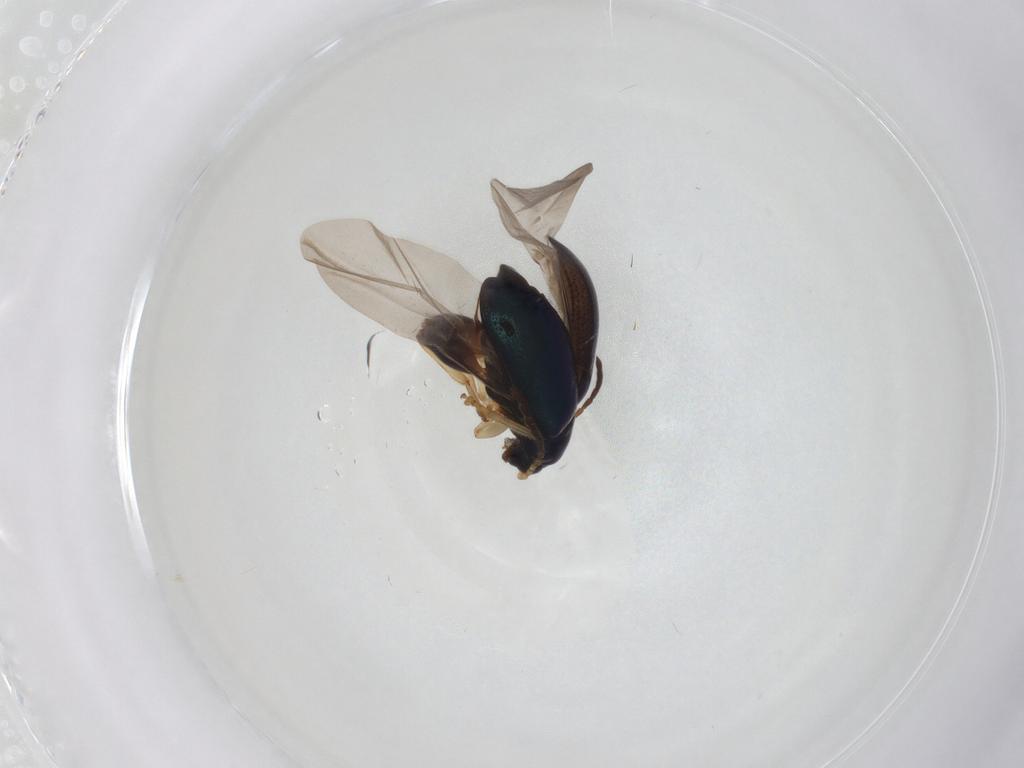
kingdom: Animalia
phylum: Arthropoda
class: Insecta
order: Coleoptera
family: Chrysomelidae
